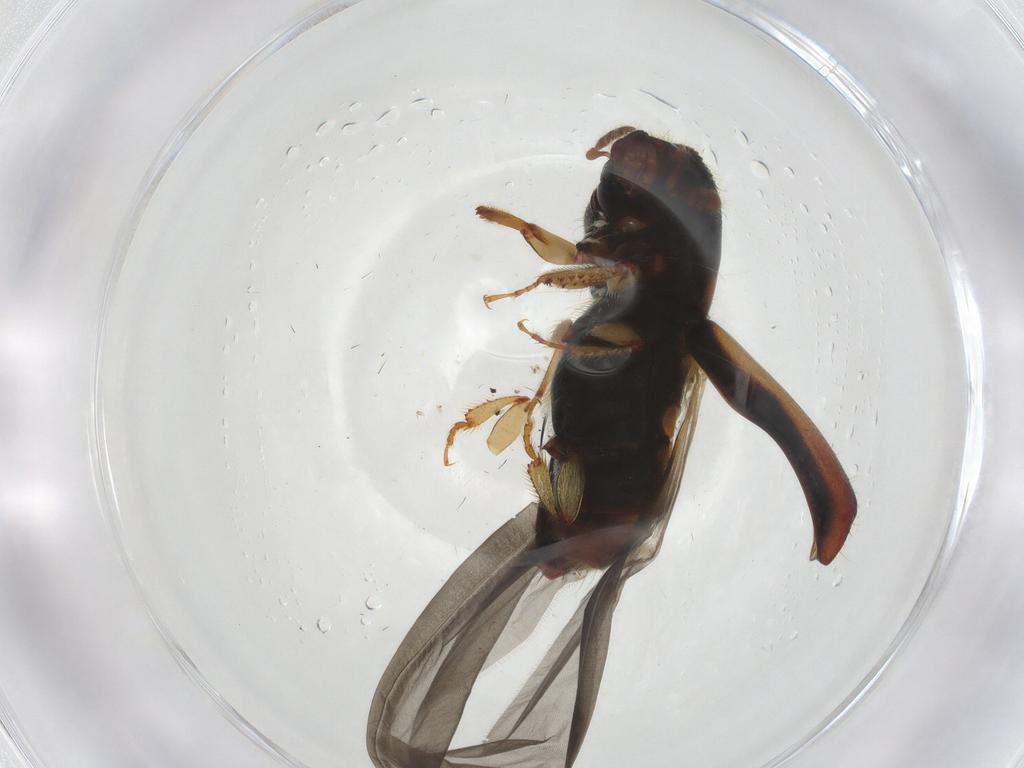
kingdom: Animalia
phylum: Arthropoda
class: Insecta
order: Coleoptera
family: Curculionidae
